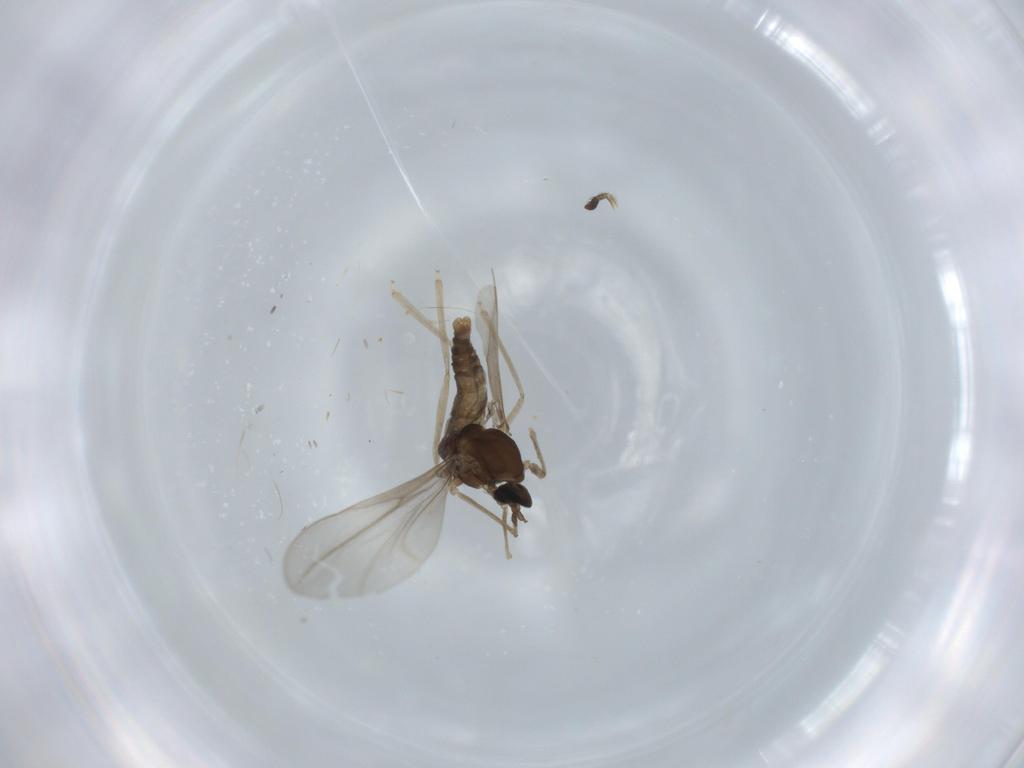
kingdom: Animalia
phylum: Arthropoda
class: Insecta
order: Diptera
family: Cecidomyiidae
